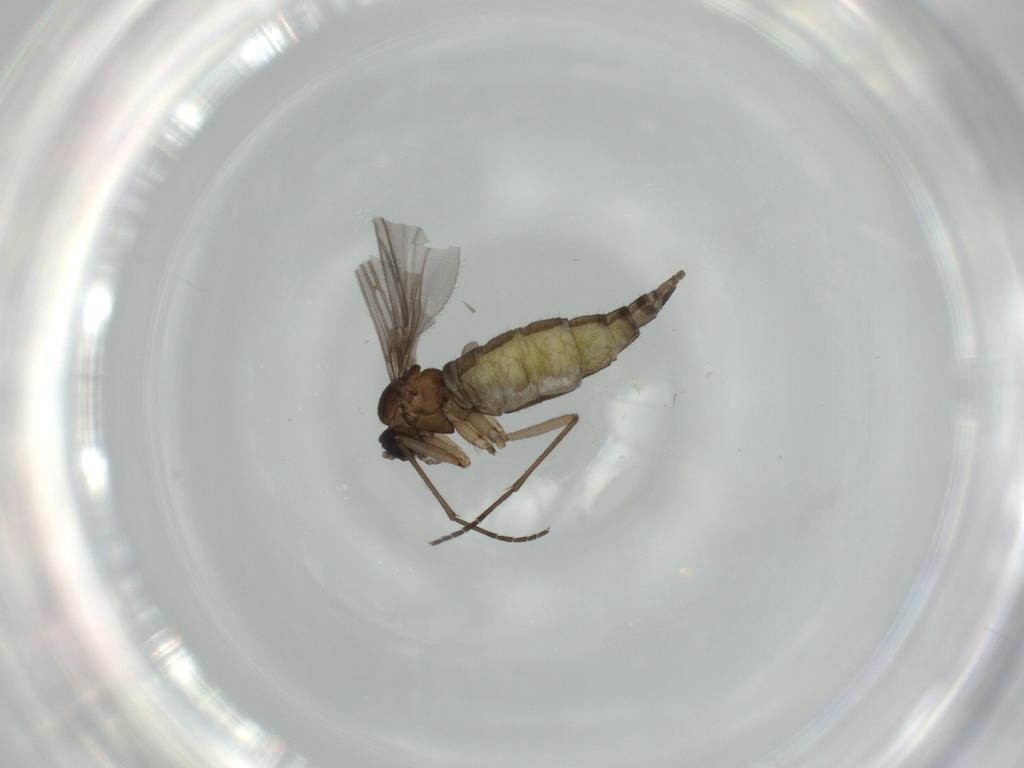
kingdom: Animalia
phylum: Arthropoda
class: Insecta
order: Diptera
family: Sciaridae
